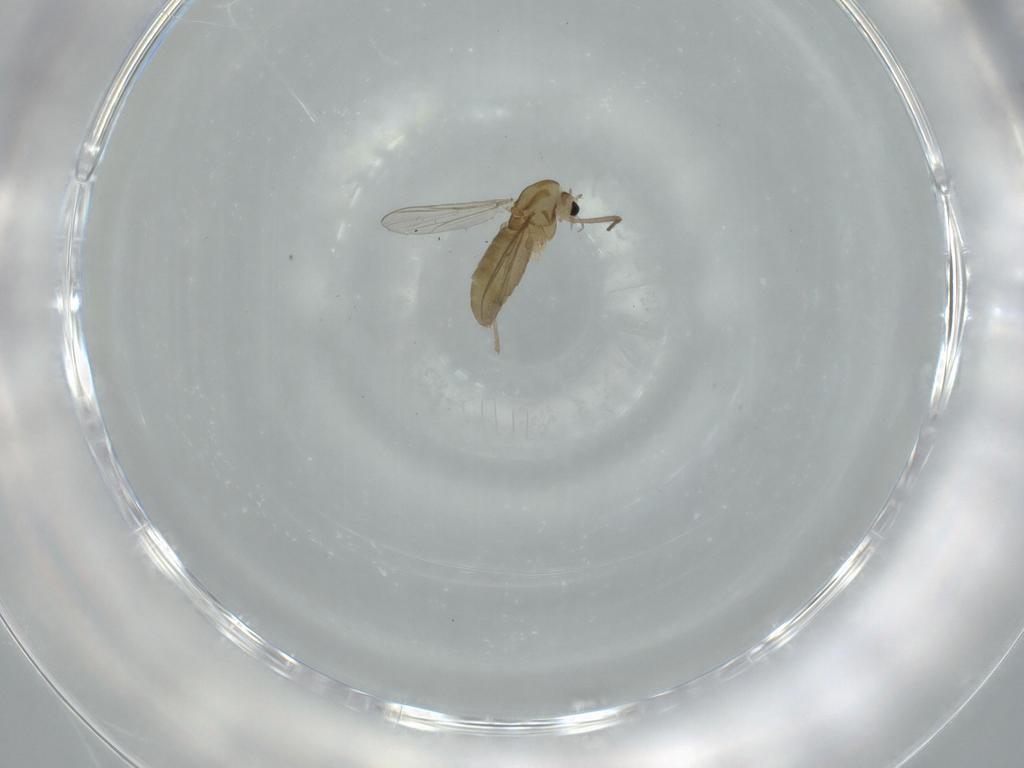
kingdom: Animalia
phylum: Arthropoda
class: Insecta
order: Diptera
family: Chironomidae
